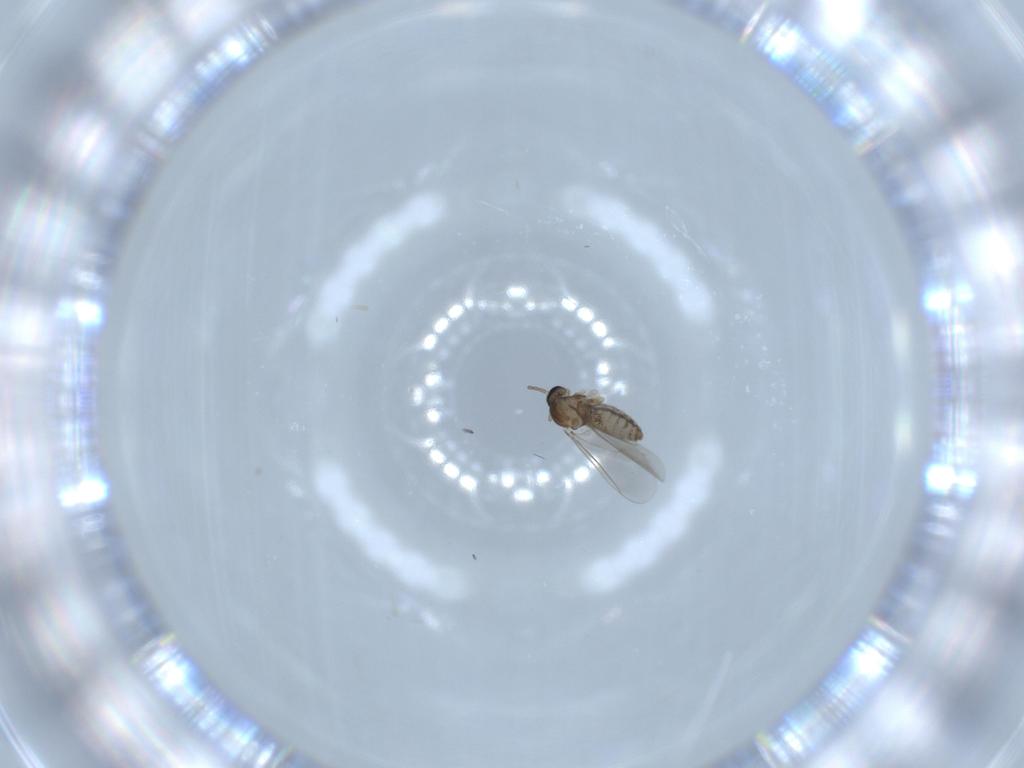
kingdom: Animalia
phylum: Arthropoda
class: Insecta
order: Diptera
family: Cecidomyiidae
